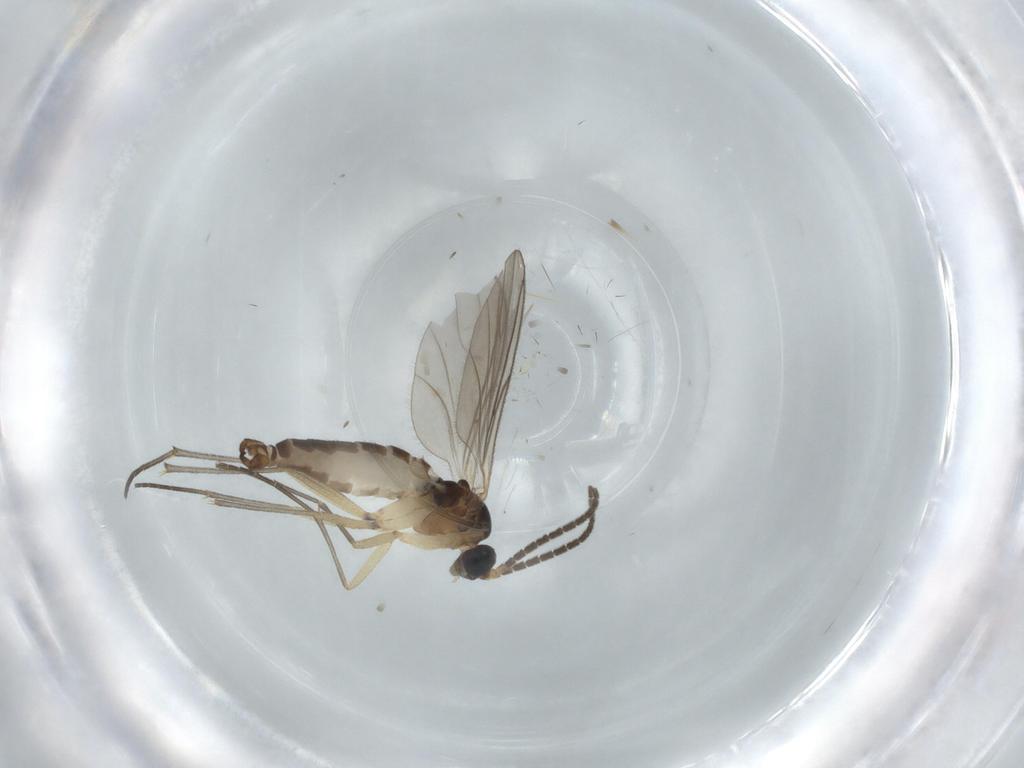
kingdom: Animalia
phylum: Arthropoda
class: Insecta
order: Diptera
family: Sciaridae
